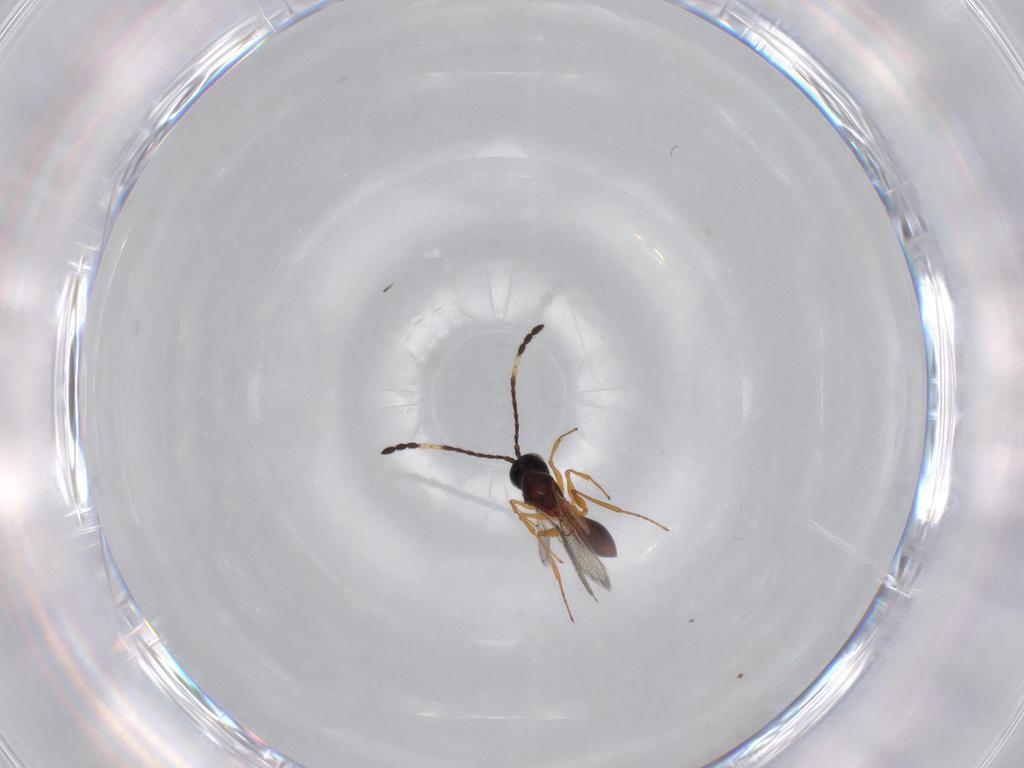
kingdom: Animalia
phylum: Arthropoda
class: Insecta
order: Hymenoptera
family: Figitidae
